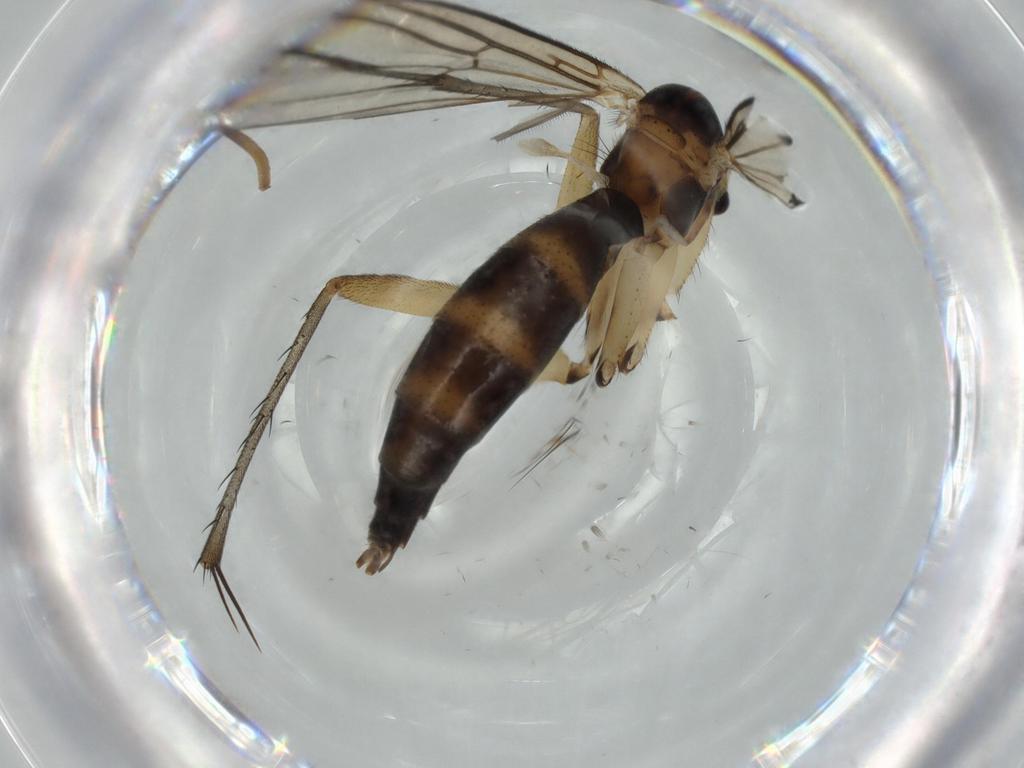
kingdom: Animalia
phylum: Arthropoda
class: Insecta
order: Diptera
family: Ceratopogonidae
